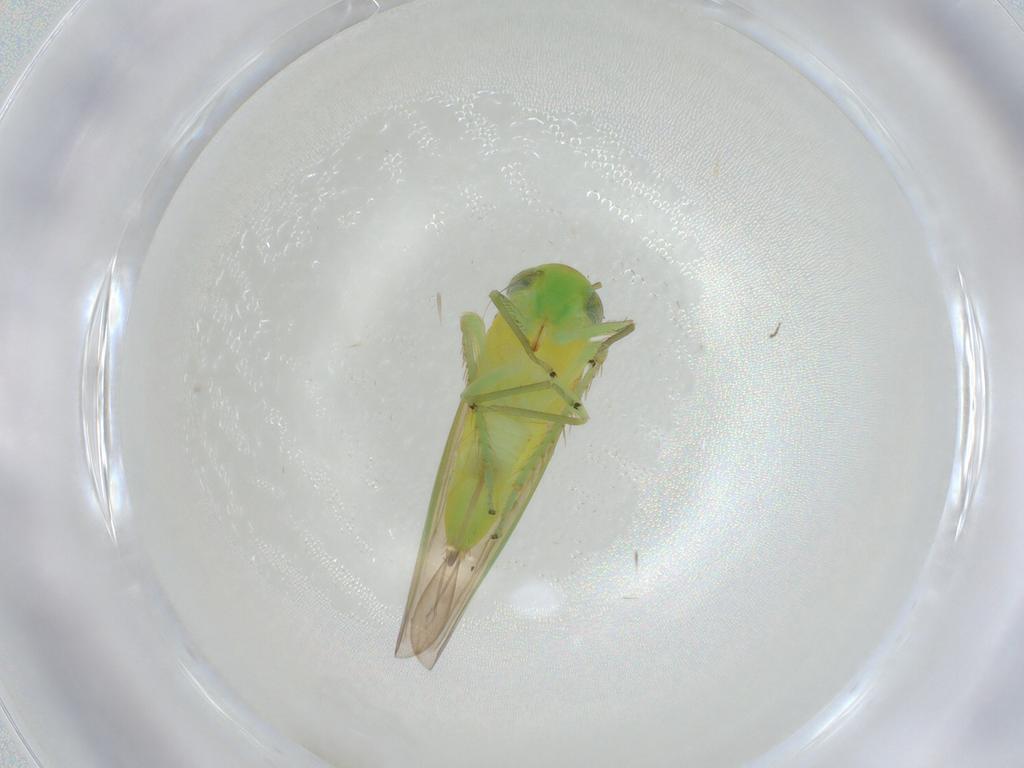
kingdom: Animalia
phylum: Arthropoda
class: Insecta
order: Hemiptera
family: Cicadellidae
